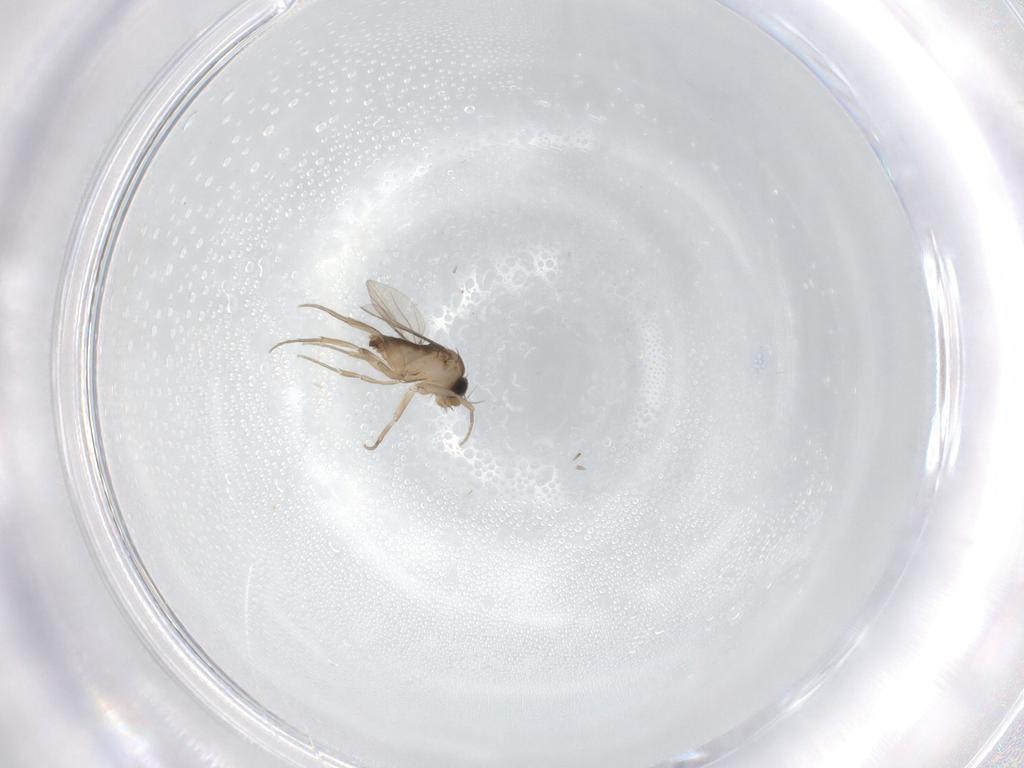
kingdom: Animalia
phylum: Arthropoda
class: Insecta
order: Diptera
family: Phoridae
